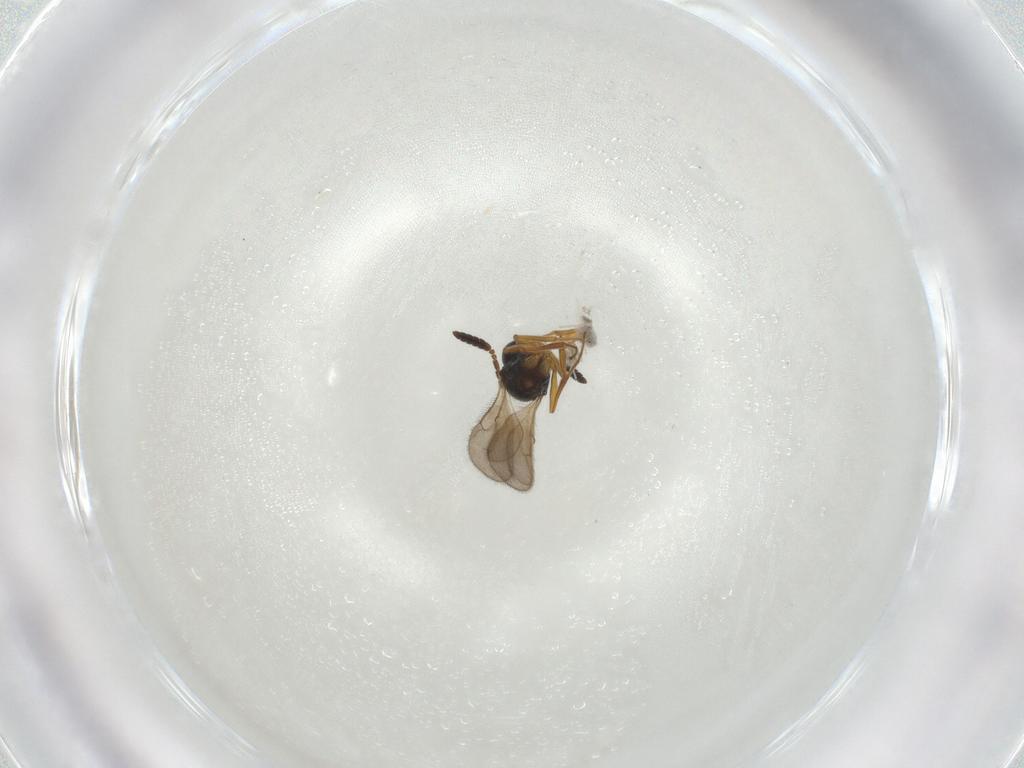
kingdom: Animalia
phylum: Arthropoda
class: Insecta
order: Hymenoptera
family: Scelionidae
